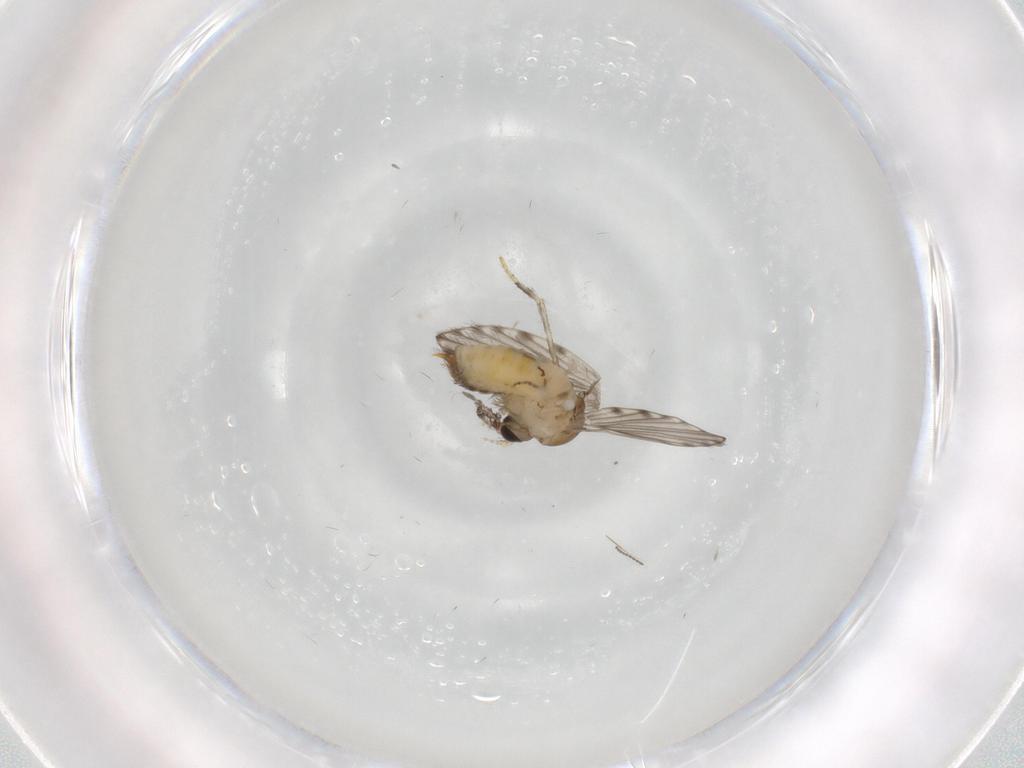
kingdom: Animalia
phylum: Arthropoda
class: Insecta
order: Diptera
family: Psychodidae
